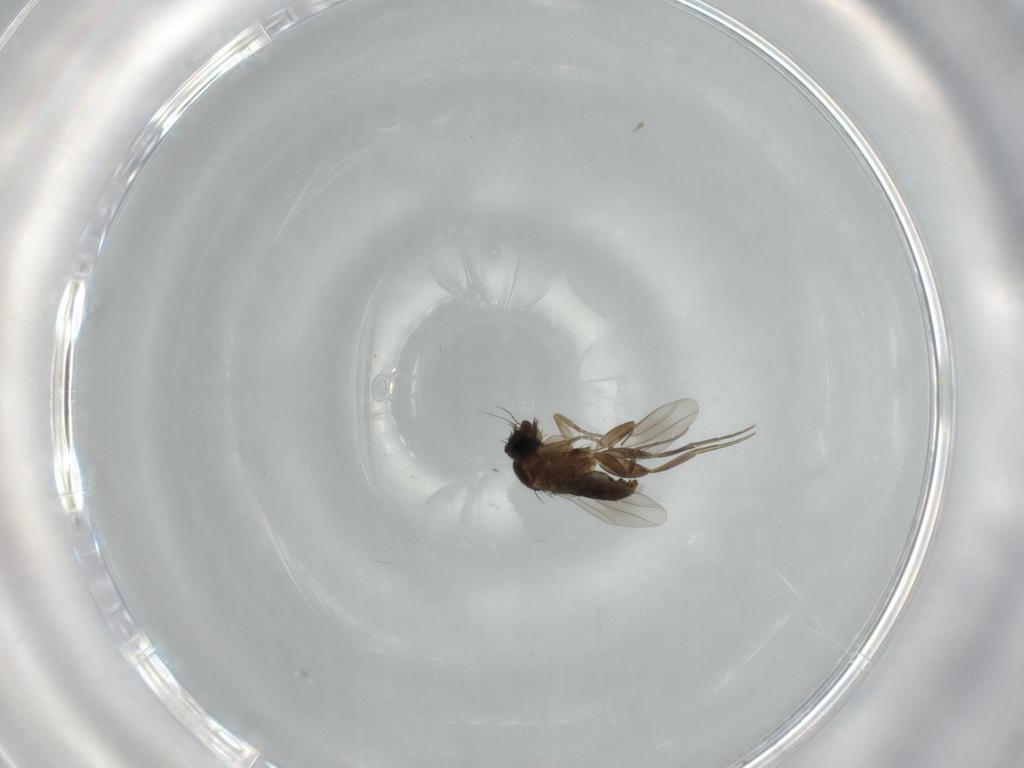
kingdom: Animalia
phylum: Arthropoda
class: Insecta
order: Diptera
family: Phoridae
